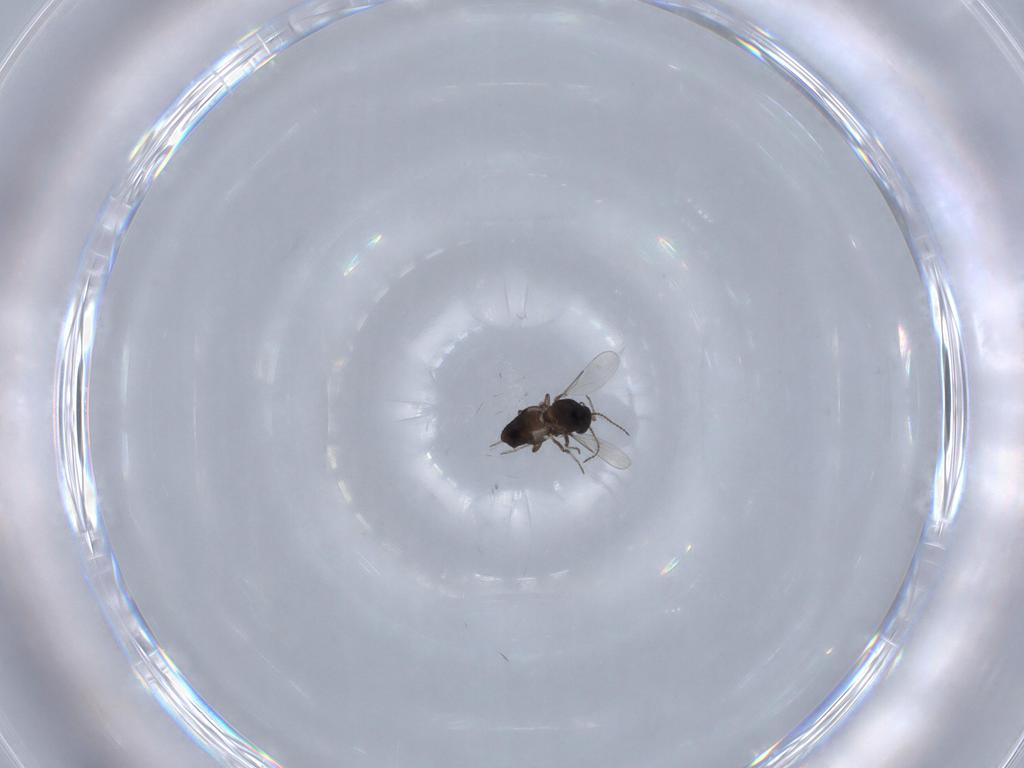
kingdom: Animalia
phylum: Arthropoda
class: Insecta
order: Diptera
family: Ceratopogonidae
